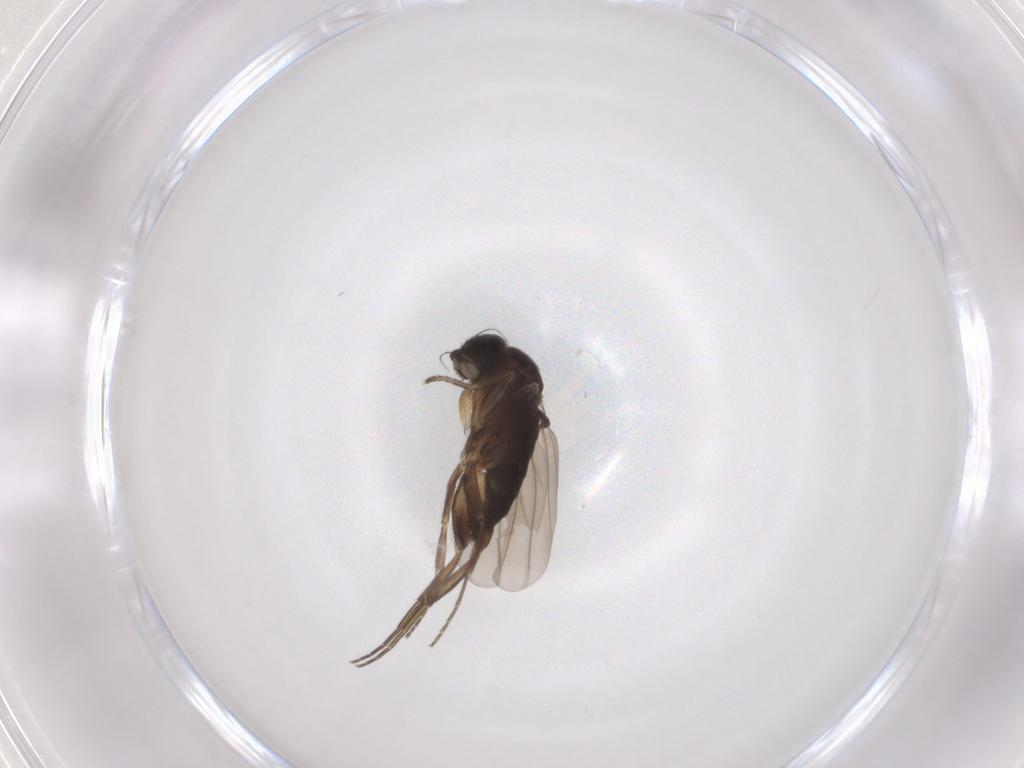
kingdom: Animalia
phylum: Arthropoda
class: Insecta
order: Diptera
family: Phoridae
